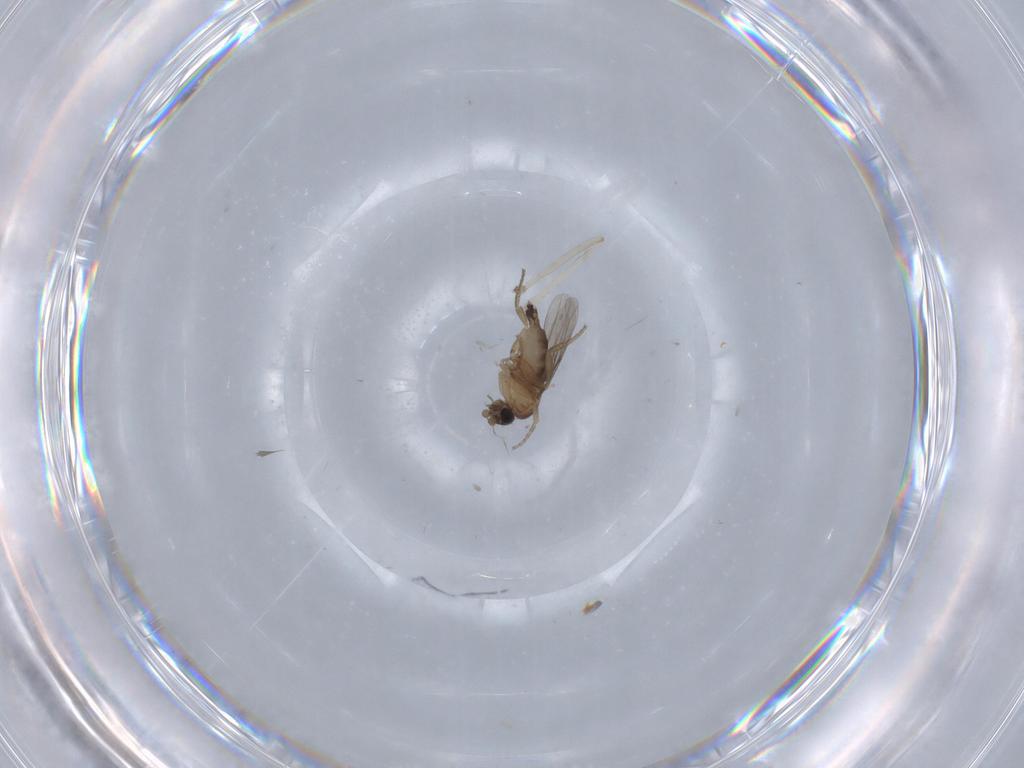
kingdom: Animalia
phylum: Arthropoda
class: Insecta
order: Diptera
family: Phoridae
